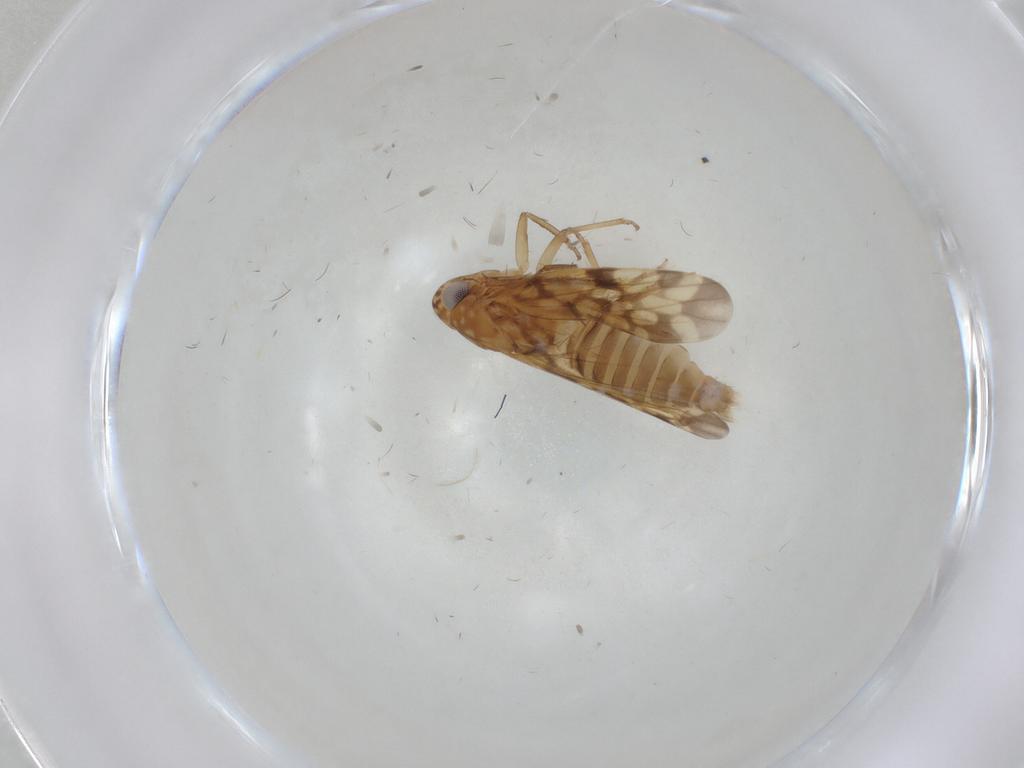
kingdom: Animalia
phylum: Arthropoda
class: Insecta
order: Hemiptera
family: Cicadellidae
